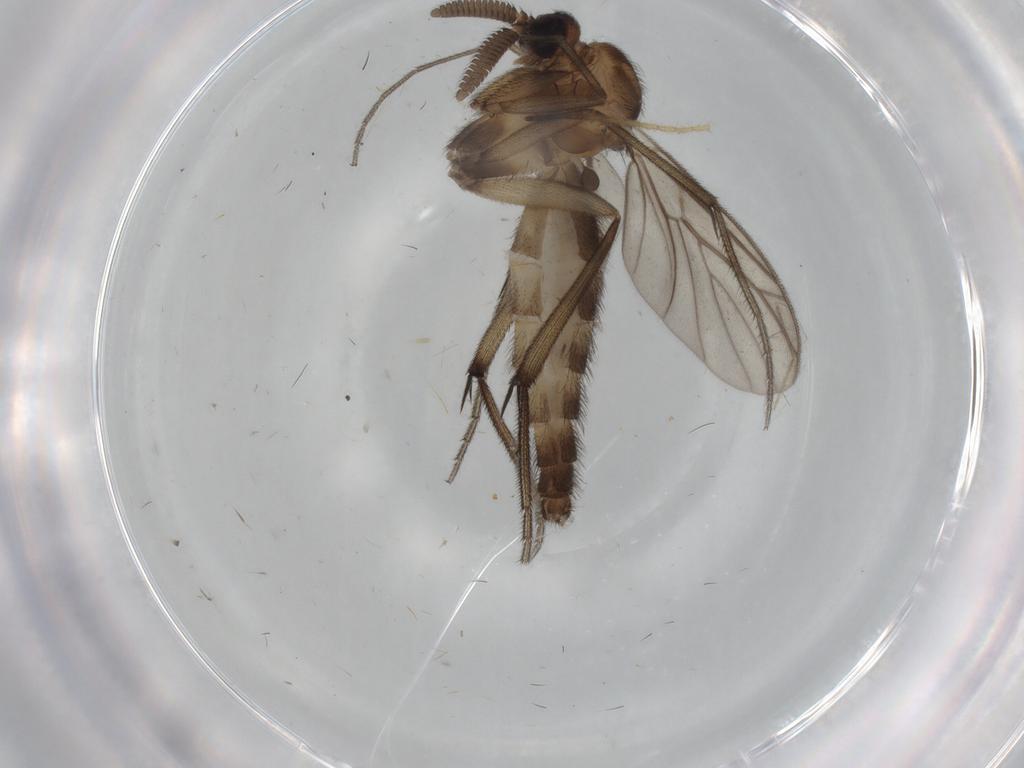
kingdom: Animalia
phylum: Arthropoda
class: Insecta
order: Diptera
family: Chironomidae
